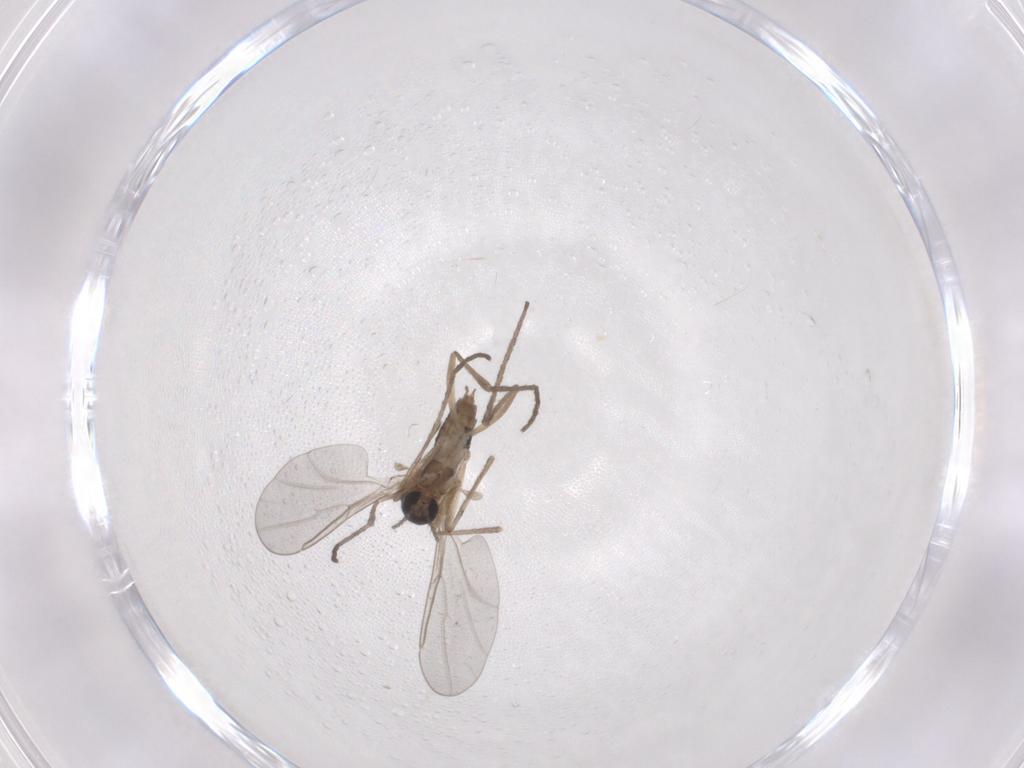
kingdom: Animalia
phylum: Arthropoda
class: Insecta
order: Diptera
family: Cecidomyiidae
